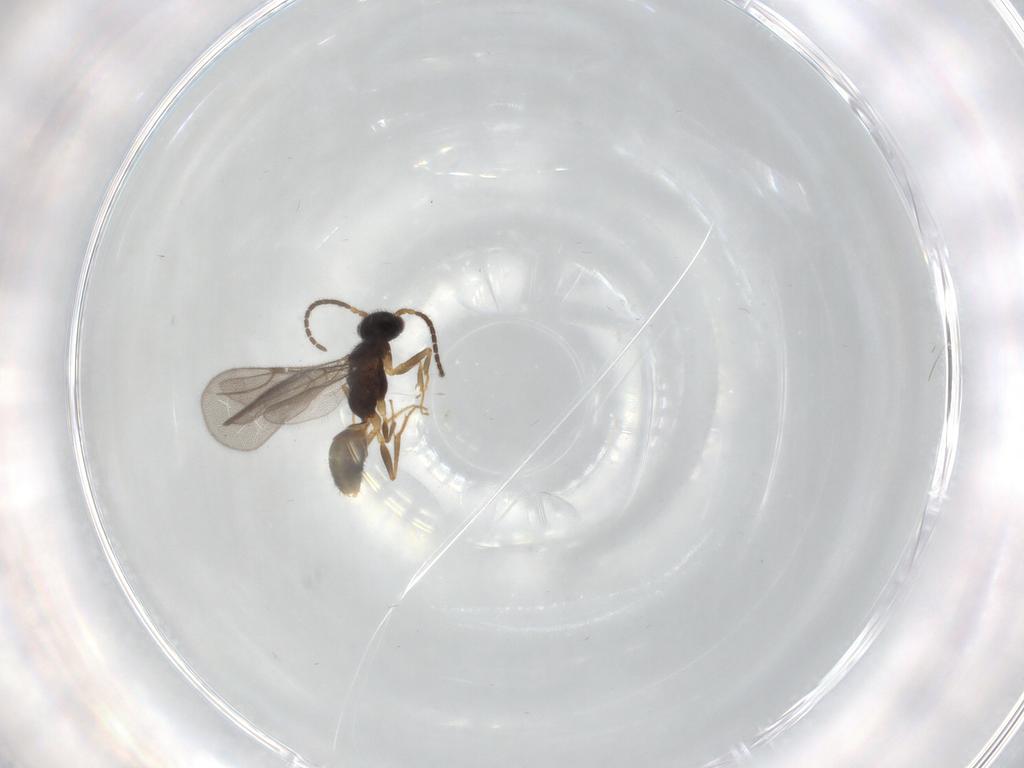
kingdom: Animalia
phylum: Arthropoda
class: Insecta
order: Hymenoptera
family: Bethylidae
